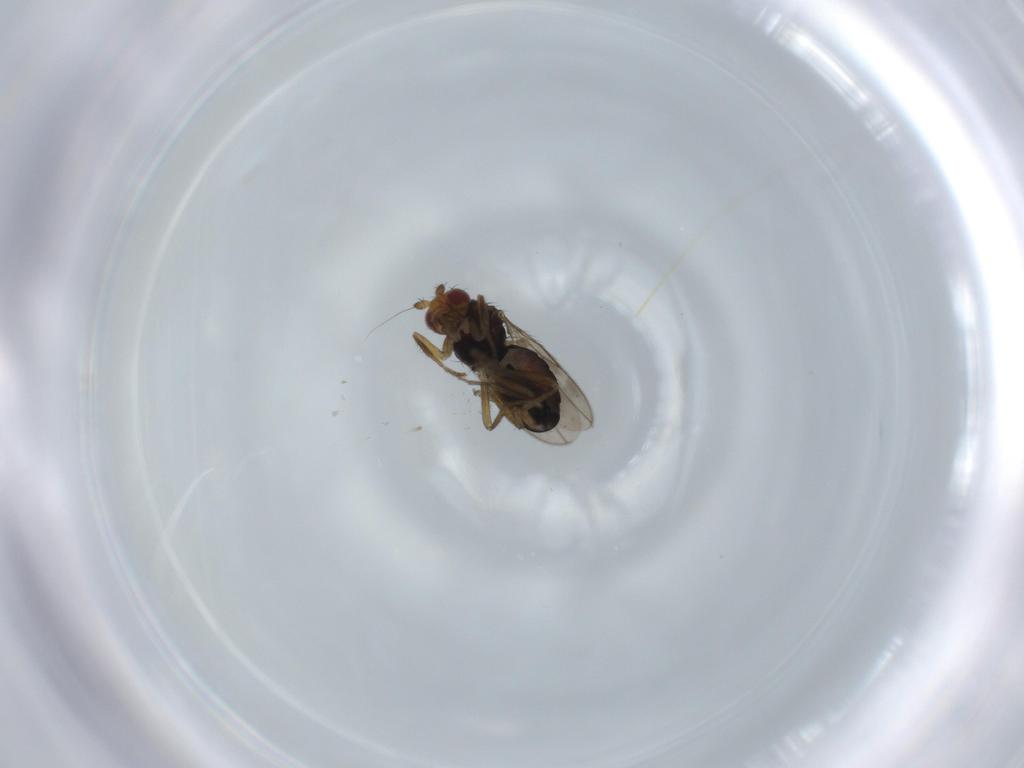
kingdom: Animalia
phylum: Arthropoda
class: Insecta
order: Diptera
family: Sphaeroceridae
